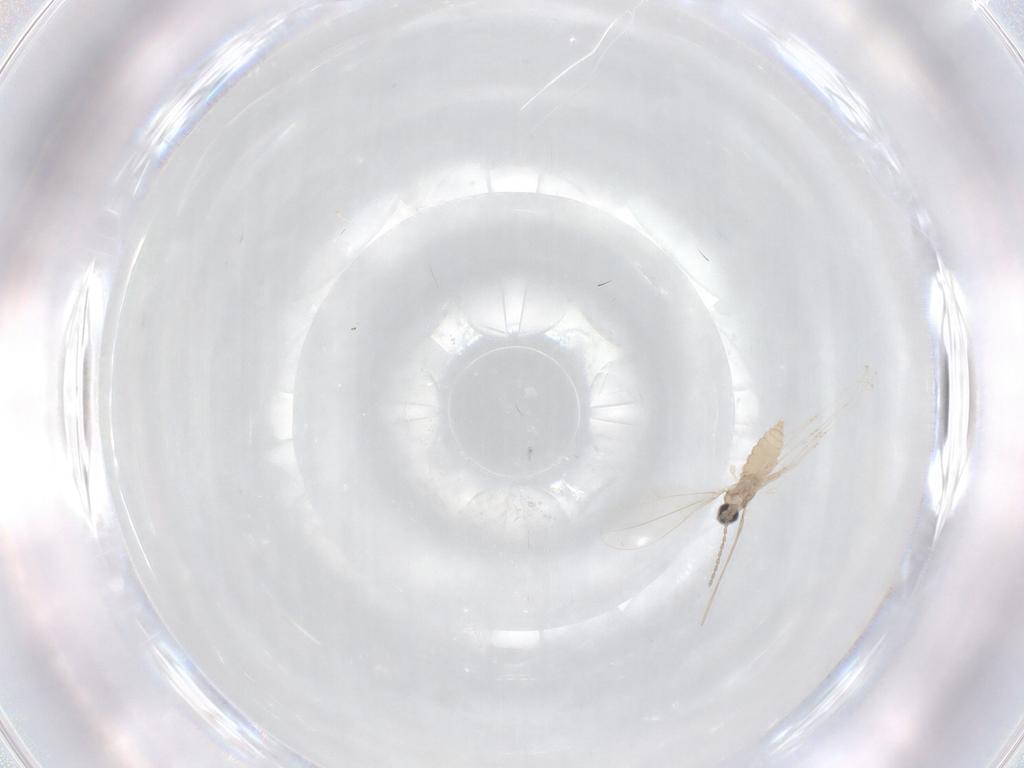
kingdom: Animalia
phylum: Arthropoda
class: Insecta
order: Diptera
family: Cecidomyiidae
